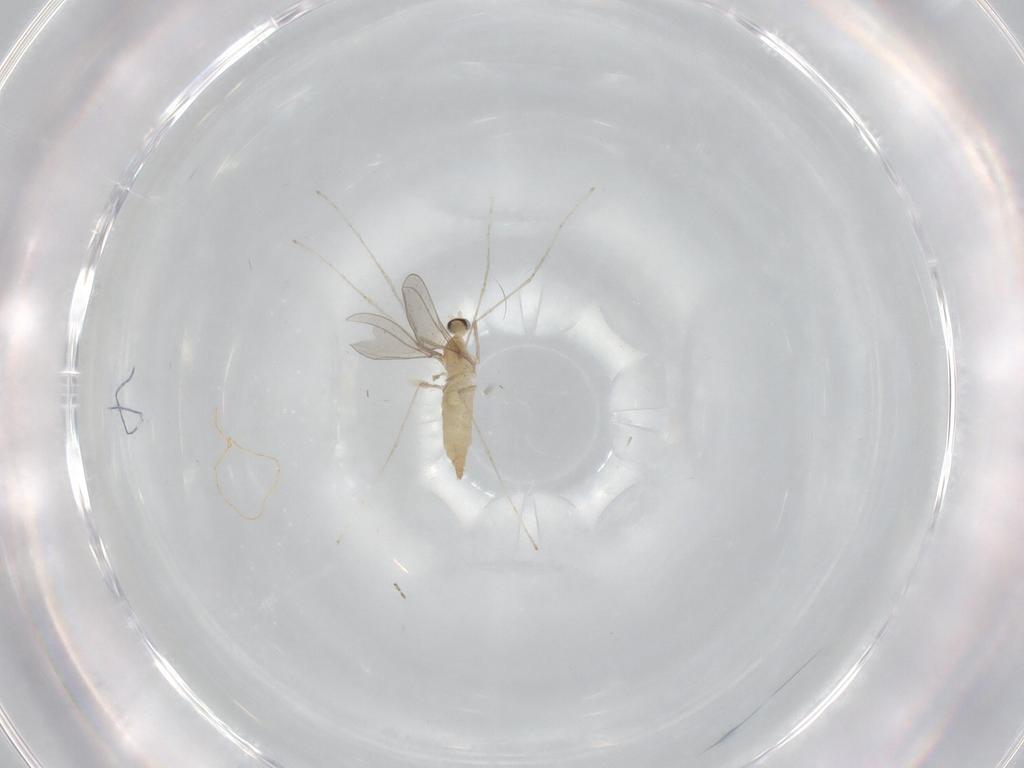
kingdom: Animalia
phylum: Arthropoda
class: Insecta
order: Diptera
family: Cecidomyiidae
